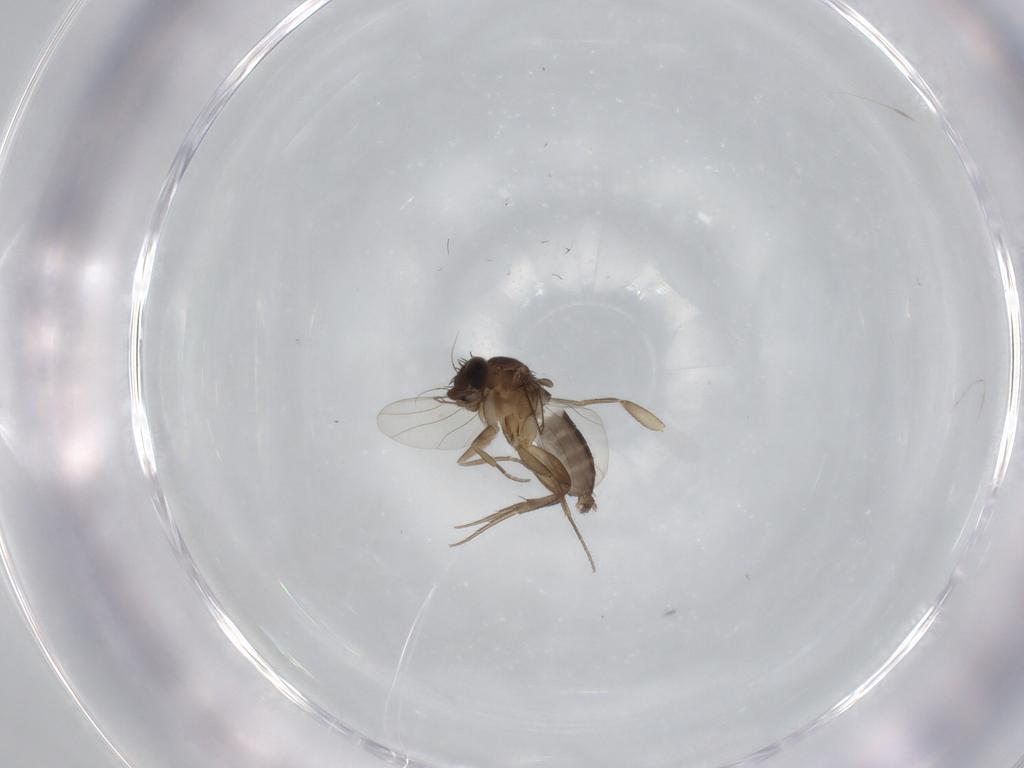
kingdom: Animalia
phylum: Arthropoda
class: Insecta
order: Diptera
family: Phoridae
